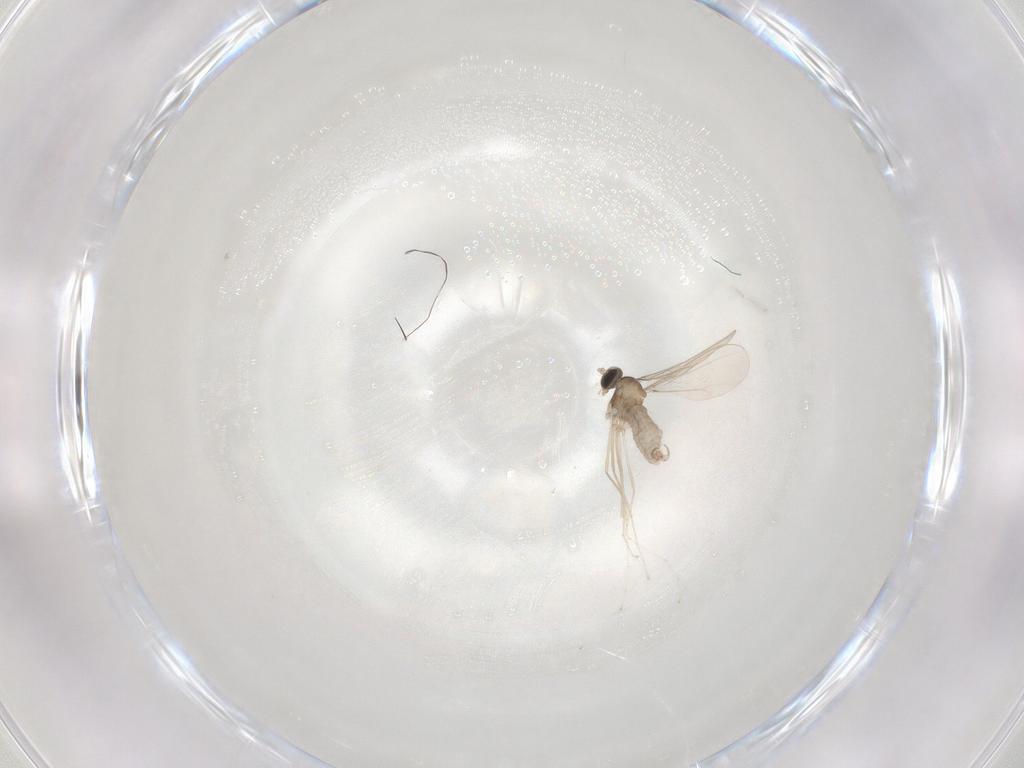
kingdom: Animalia
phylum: Arthropoda
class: Insecta
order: Diptera
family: Cecidomyiidae
